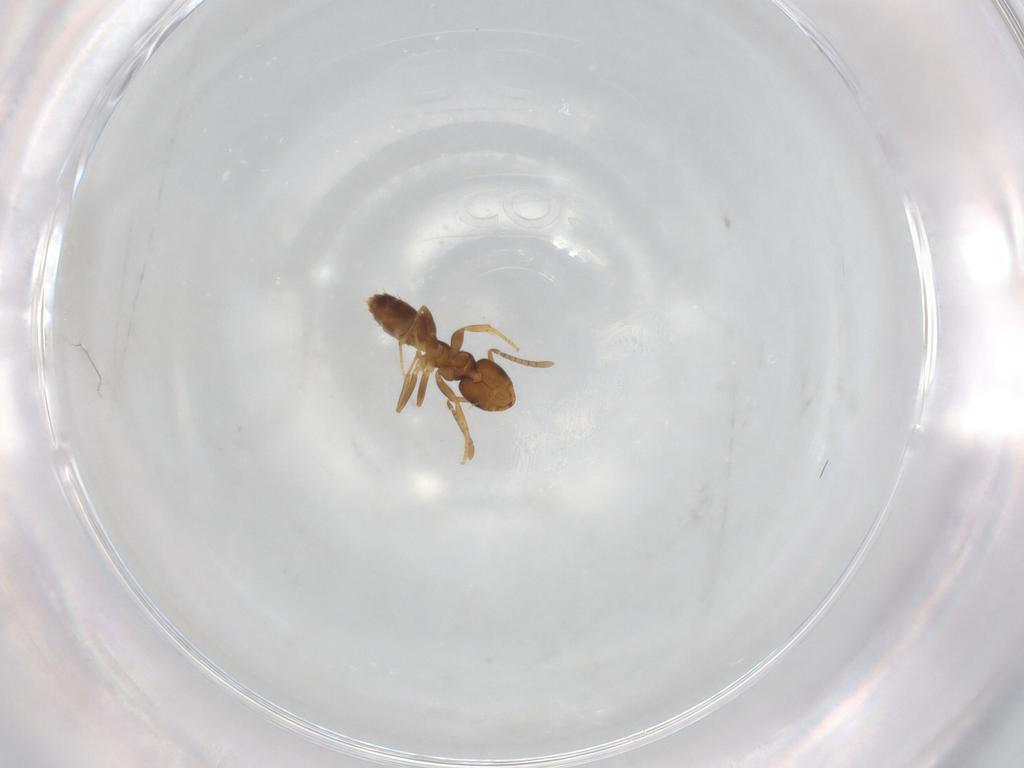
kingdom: Animalia
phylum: Arthropoda
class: Insecta
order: Hymenoptera
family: Formicidae
